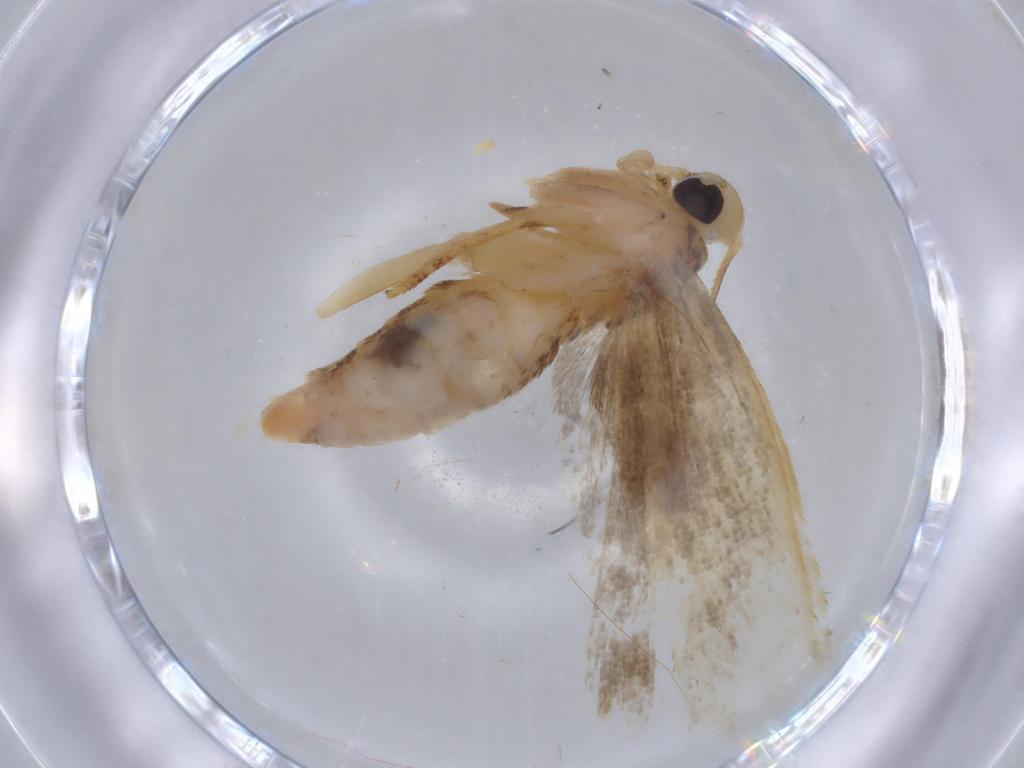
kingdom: Animalia
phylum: Arthropoda
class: Insecta
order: Lepidoptera
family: Gelechiidae
